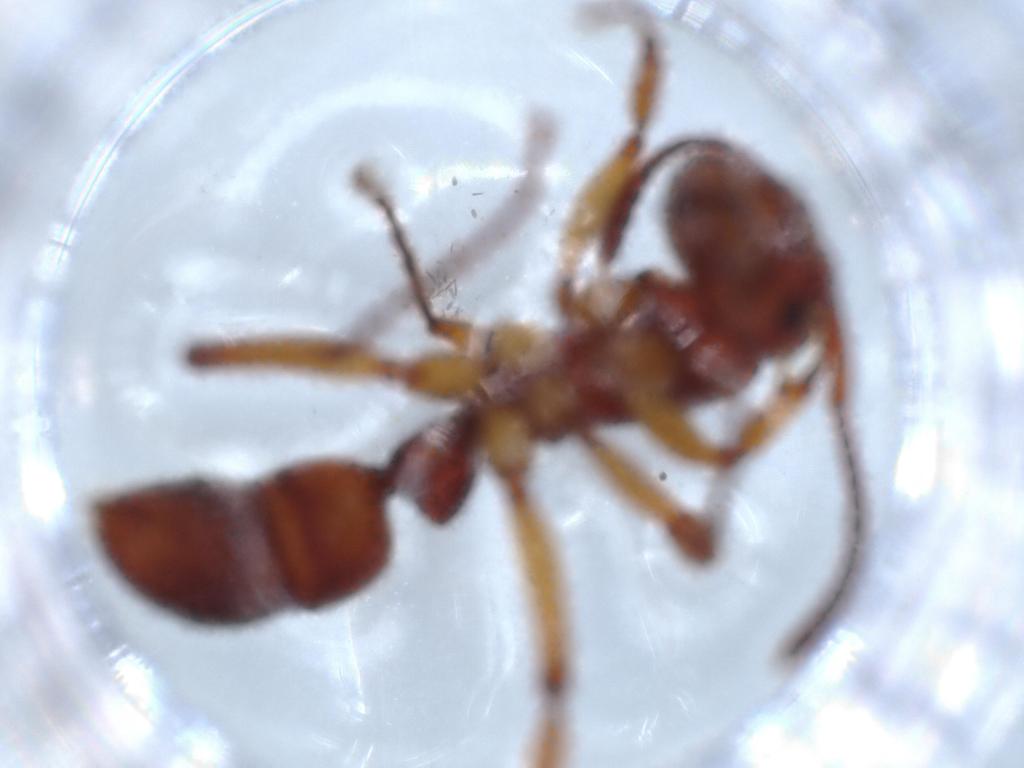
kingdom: Animalia
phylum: Arthropoda
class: Insecta
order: Hymenoptera
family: Formicidae
